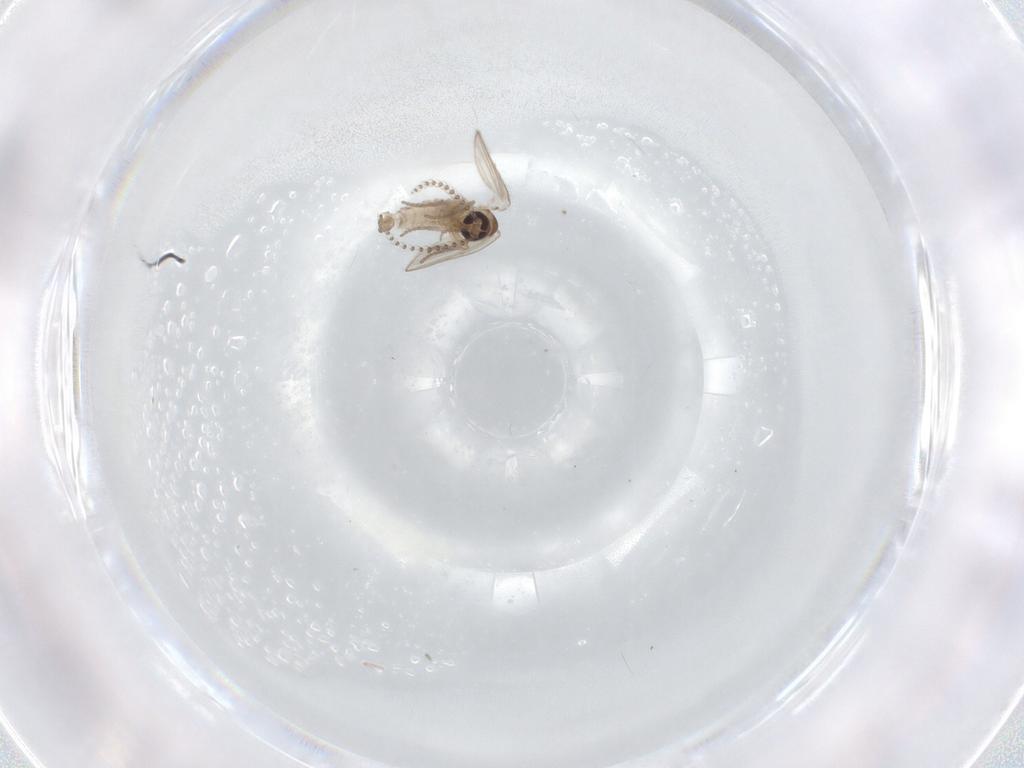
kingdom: Animalia
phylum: Arthropoda
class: Insecta
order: Diptera
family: Psychodidae
